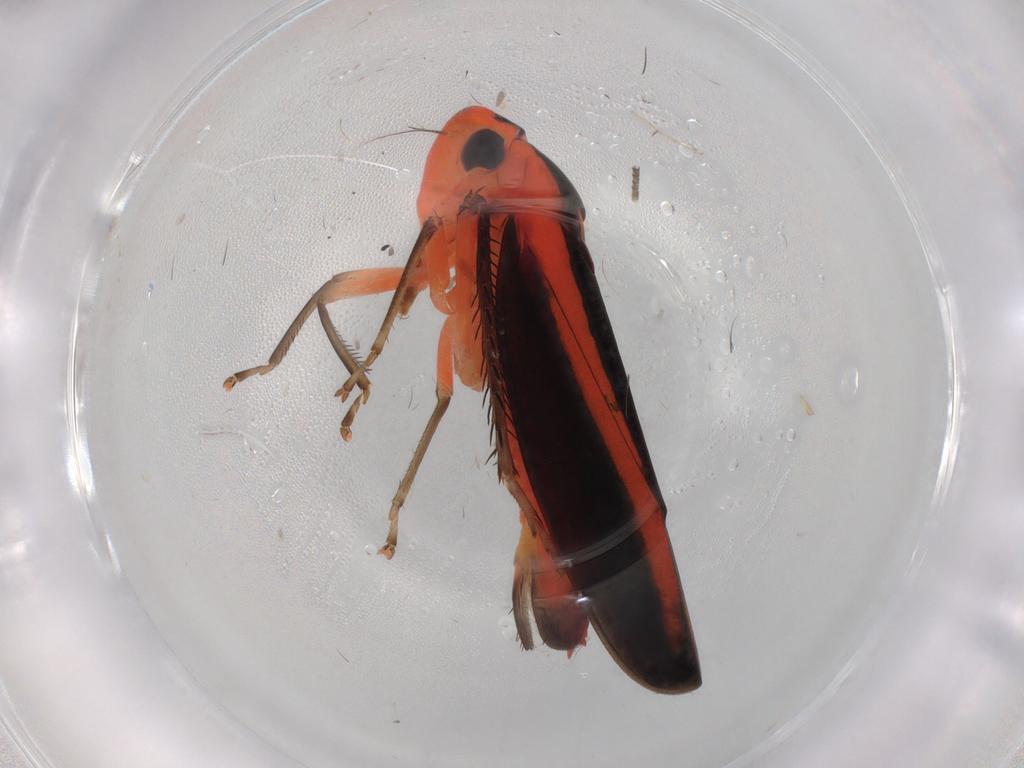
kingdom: Animalia
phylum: Arthropoda
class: Insecta
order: Hemiptera
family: Cicadellidae
